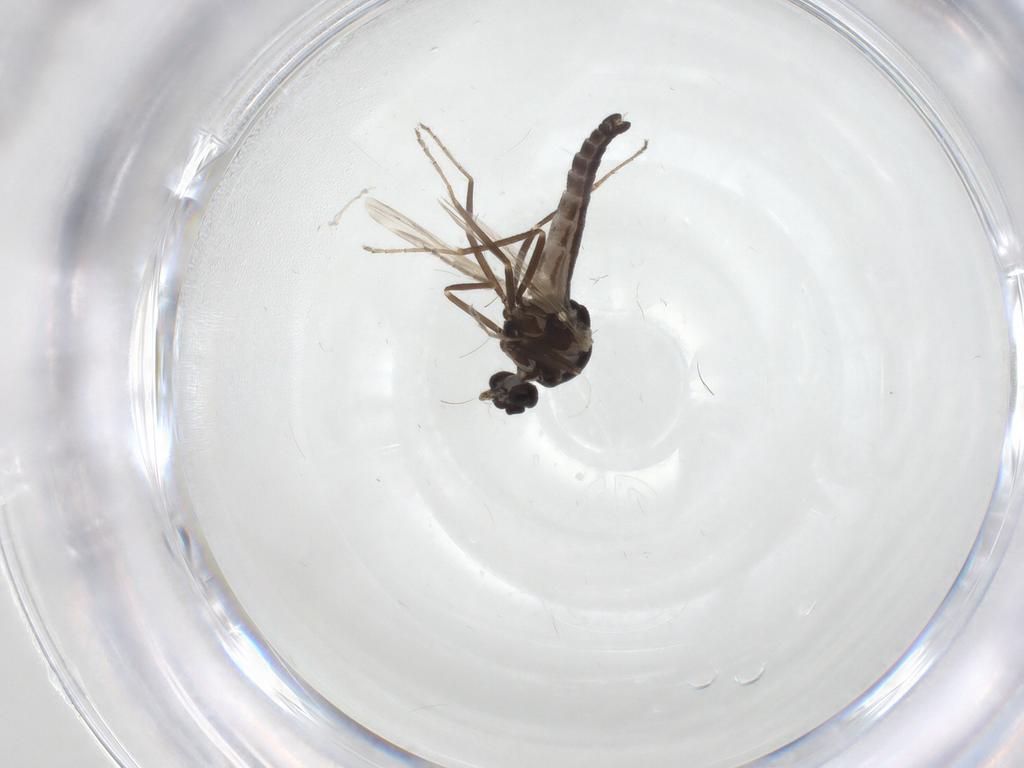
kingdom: Animalia
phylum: Arthropoda
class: Insecta
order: Diptera
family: Ceratopogonidae
